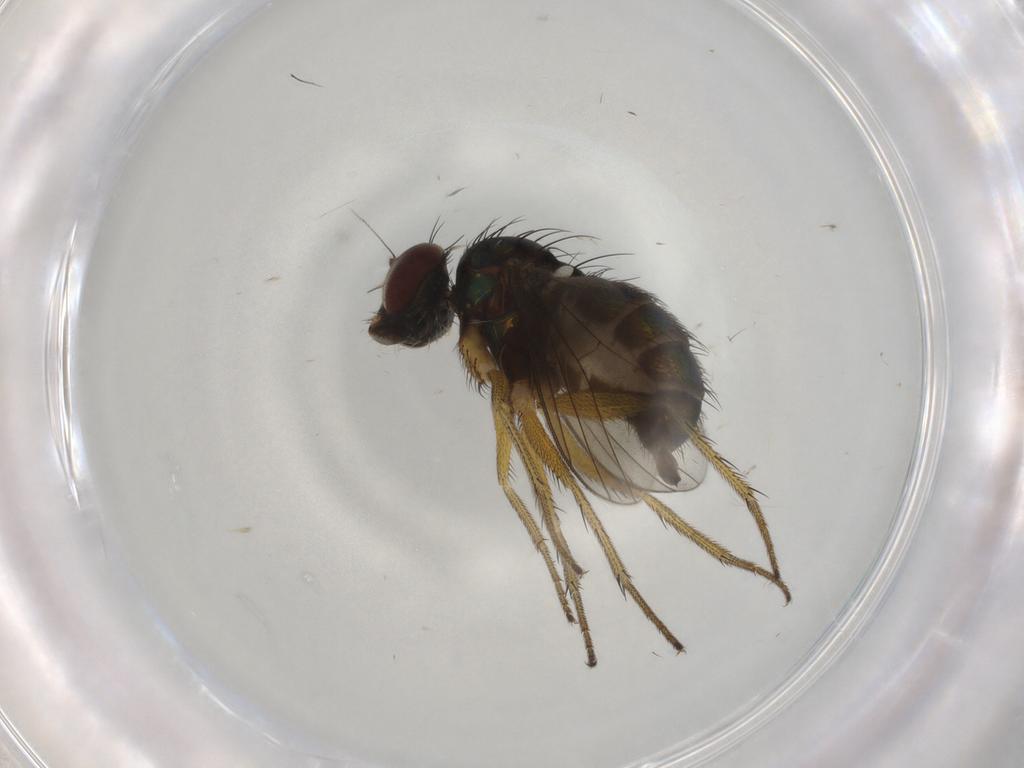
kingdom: Animalia
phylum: Arthropoda
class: Insecta
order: Diptera
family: Dolichopodidae
